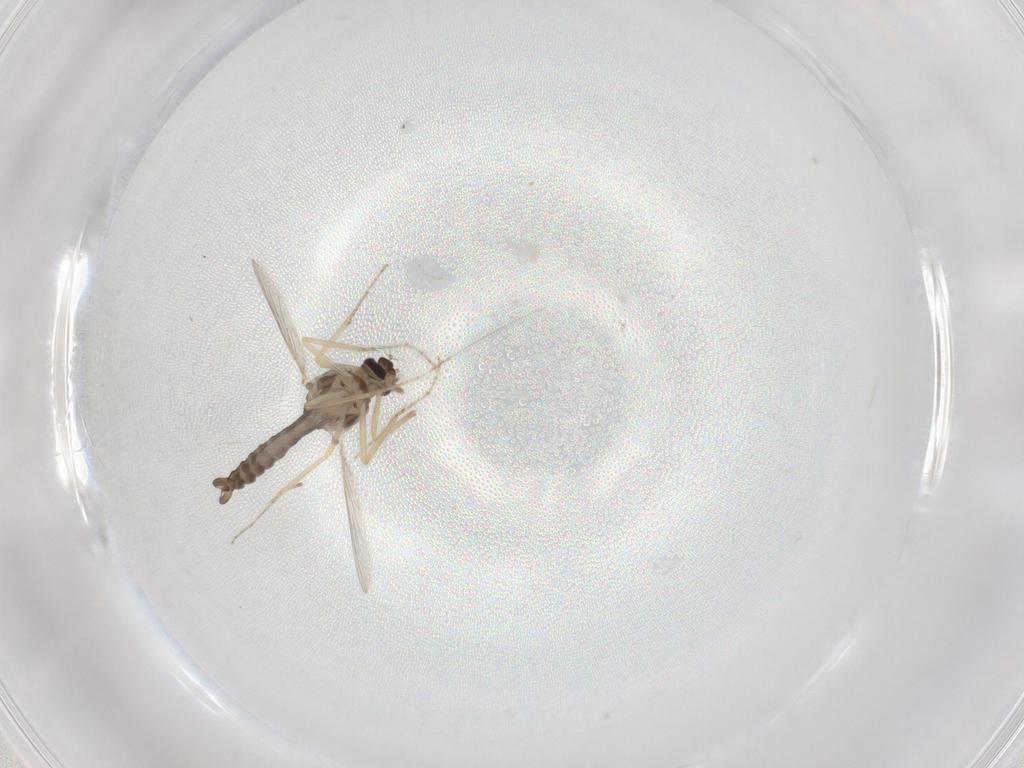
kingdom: Animalia
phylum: Arthropoda
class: Insecta
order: Diptera
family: Ceratopogonidae
